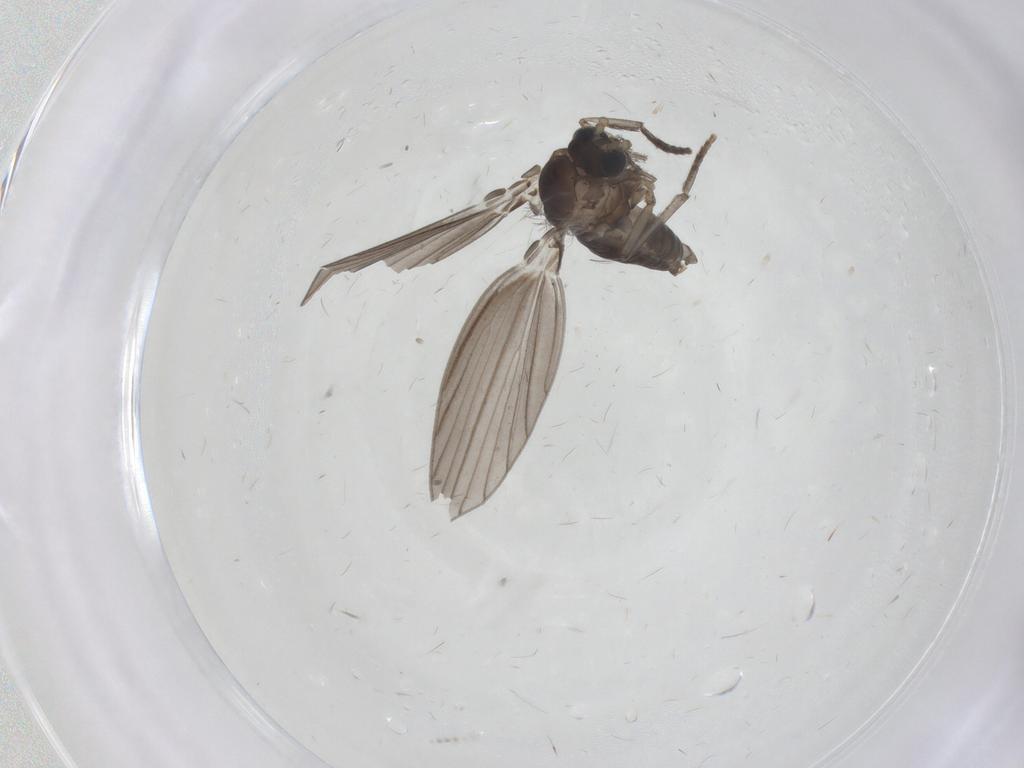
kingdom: Animalia
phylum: Arthropoda
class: Insecta
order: Diptera
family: Psychodidae
